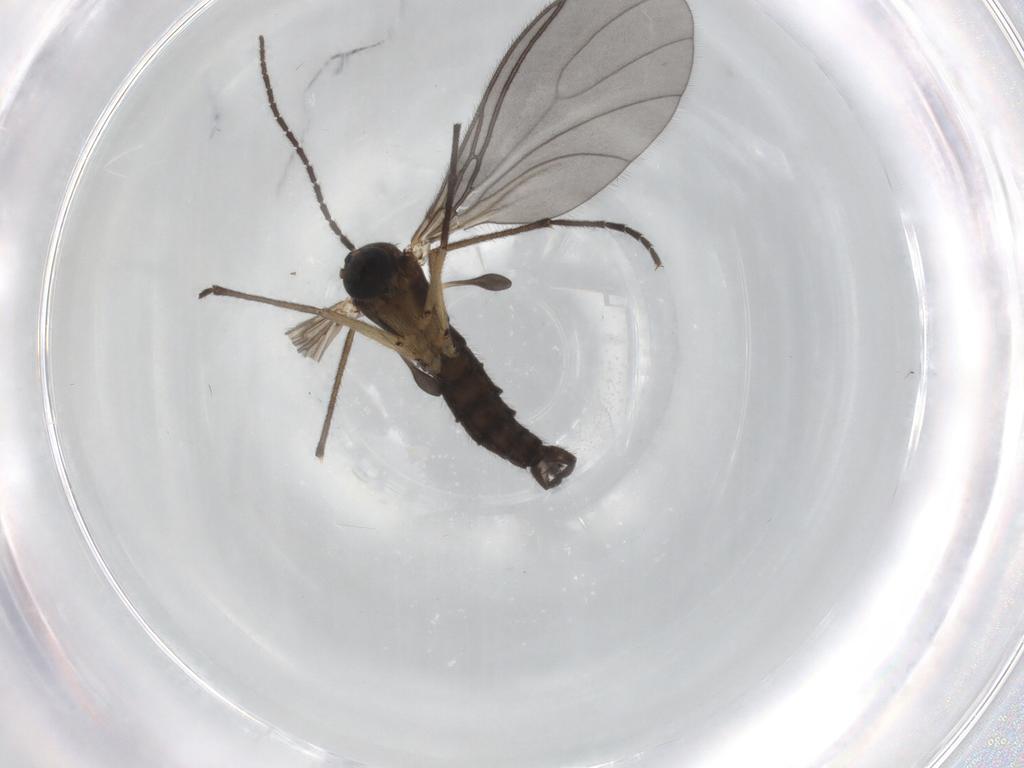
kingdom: Animalia
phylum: Arthropoda
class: Insecta
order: Diptera
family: Sciaridae
